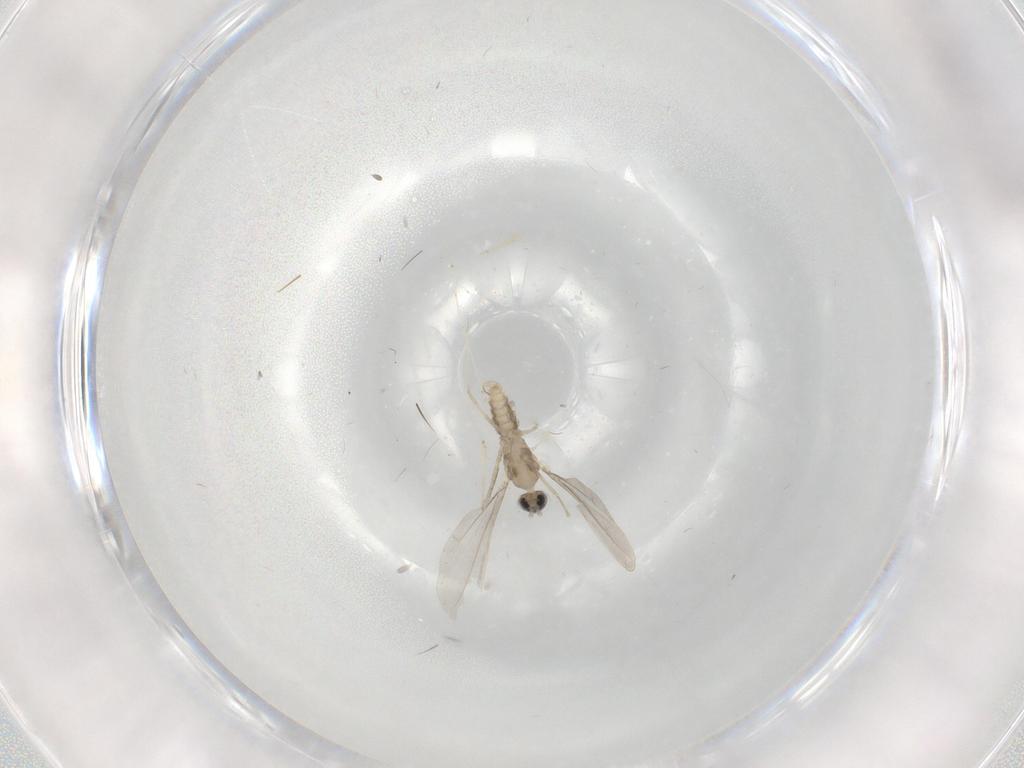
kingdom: Animalia
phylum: Arthropoda
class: Insecta
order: Diptera
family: Cecidomyiidae
